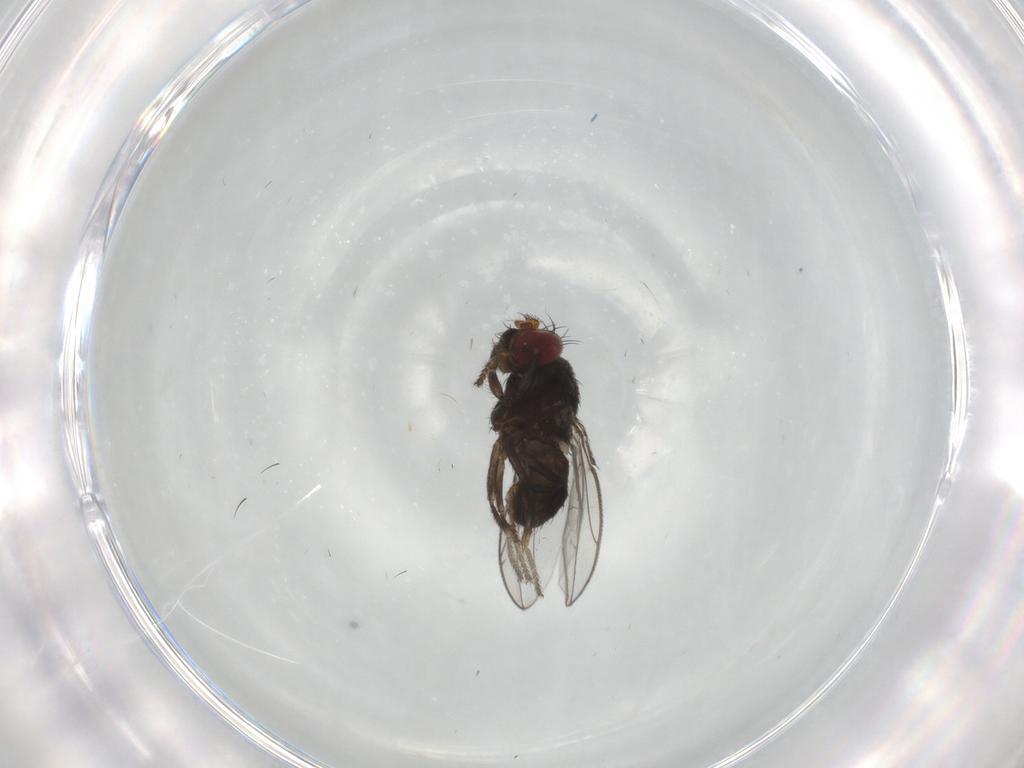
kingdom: Animalia
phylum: Arthropoda
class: Insecta
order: Diptera
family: Ephydridae
